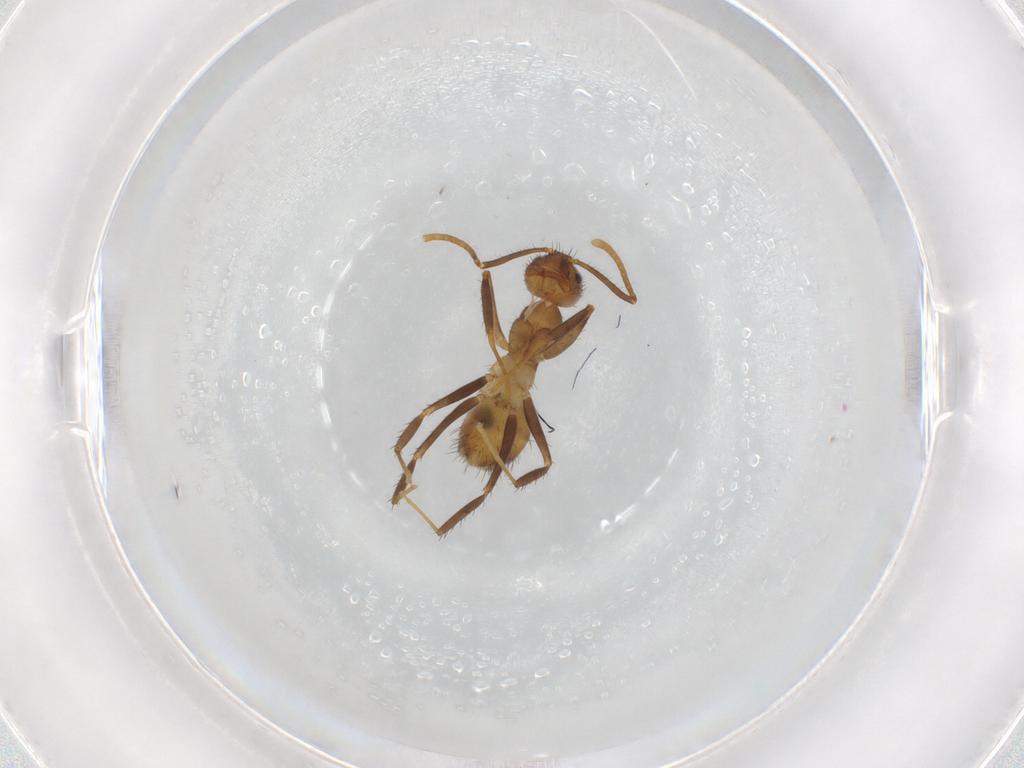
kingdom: Animalia
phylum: Arthropoda
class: Insecta
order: Hymenoptera
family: Formicidae
